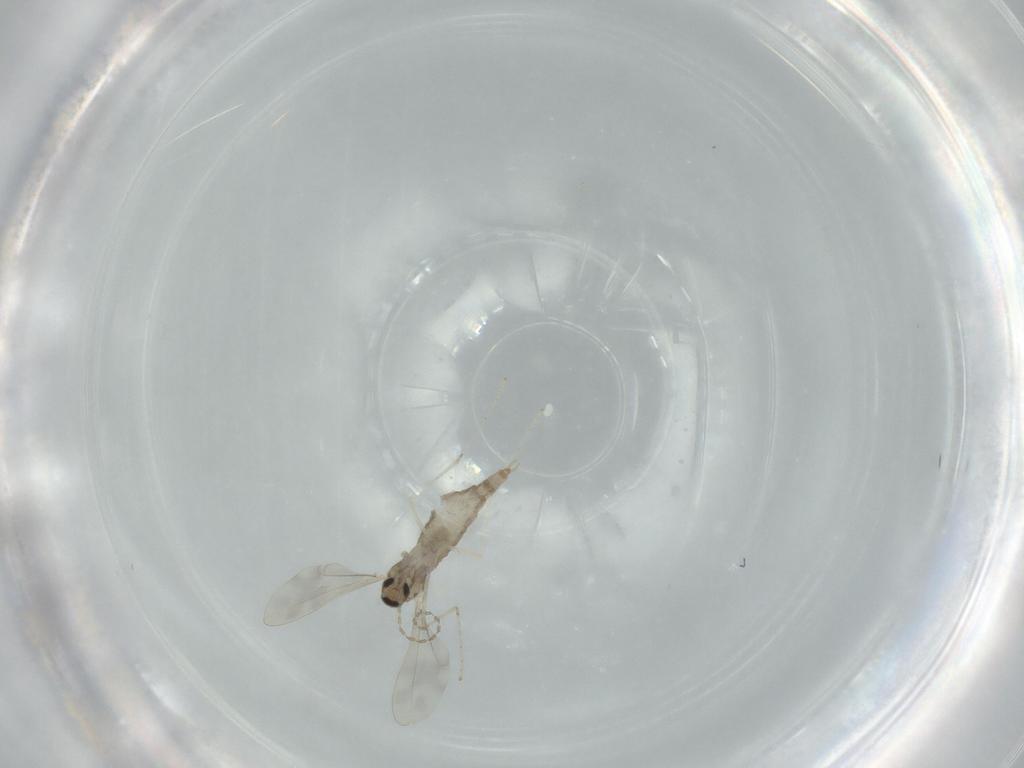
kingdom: Animalia
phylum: Arthropoda
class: Insecta
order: Diptera
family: Cecidomyiidae
